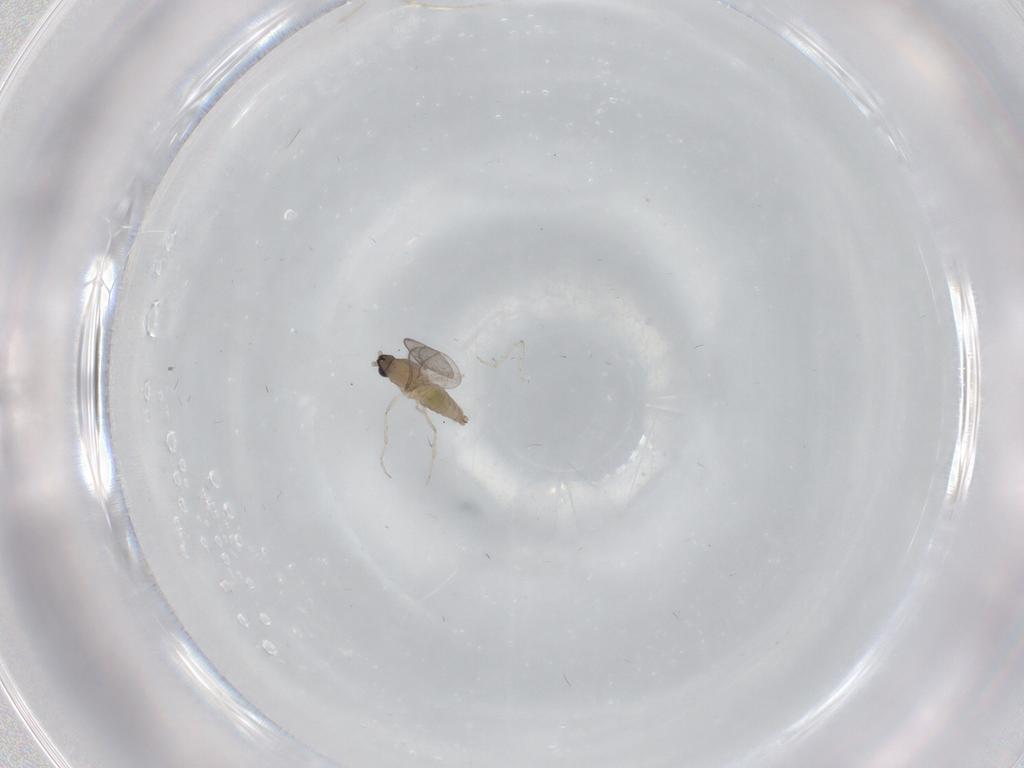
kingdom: Animalia
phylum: Arthropoda
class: Insecta
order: Diptera
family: Cecidomyiidae
